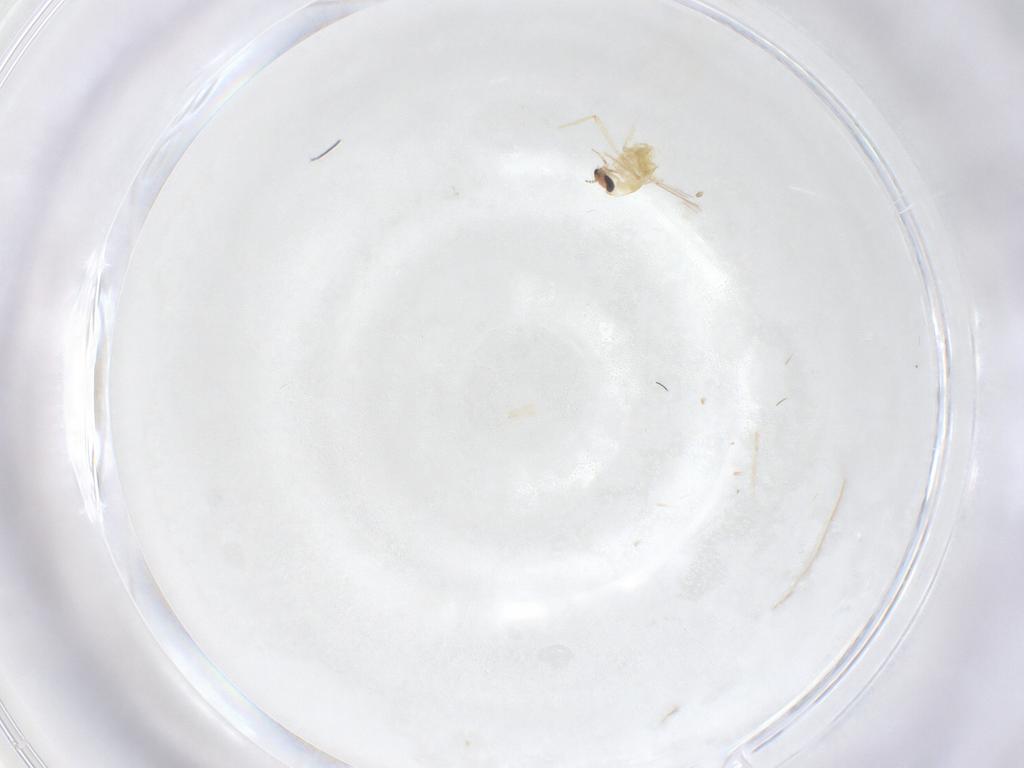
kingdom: Animalia
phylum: Arthropoda
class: Insecta
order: Diptera
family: Chironomidae
